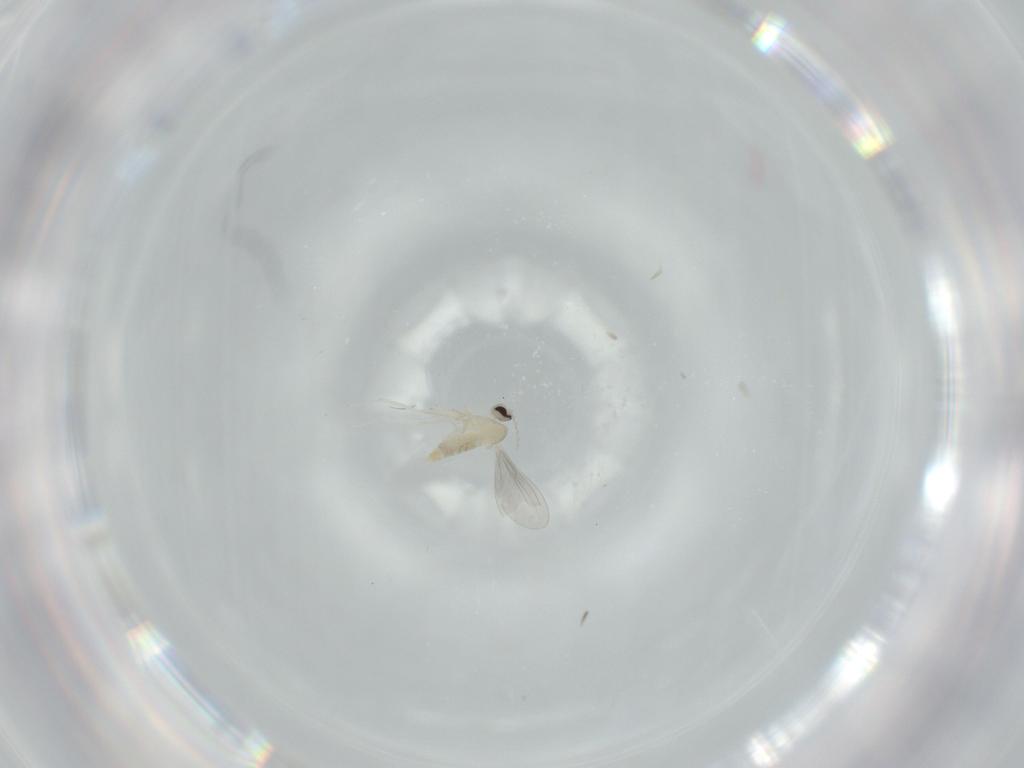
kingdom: Animalia
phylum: Arthropoda
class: Insecta
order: Diptera
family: Cecidomyiidae
